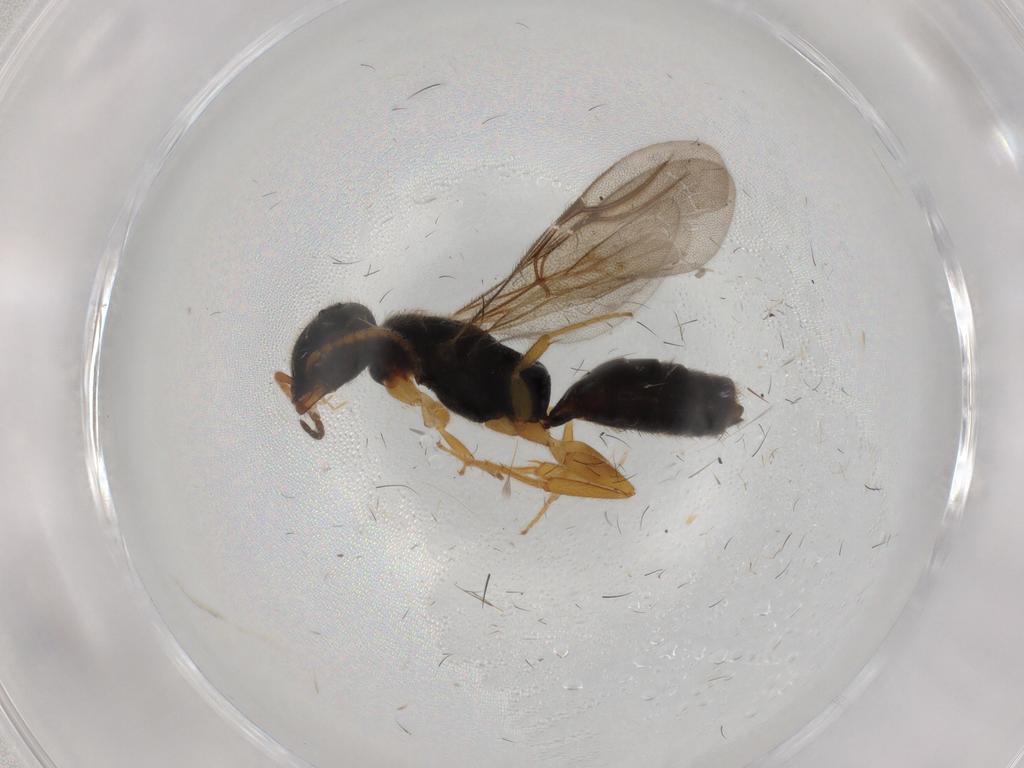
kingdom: Animalia
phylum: Arthropoda
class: Insecta
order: Hymenoptera
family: Bethylidae
